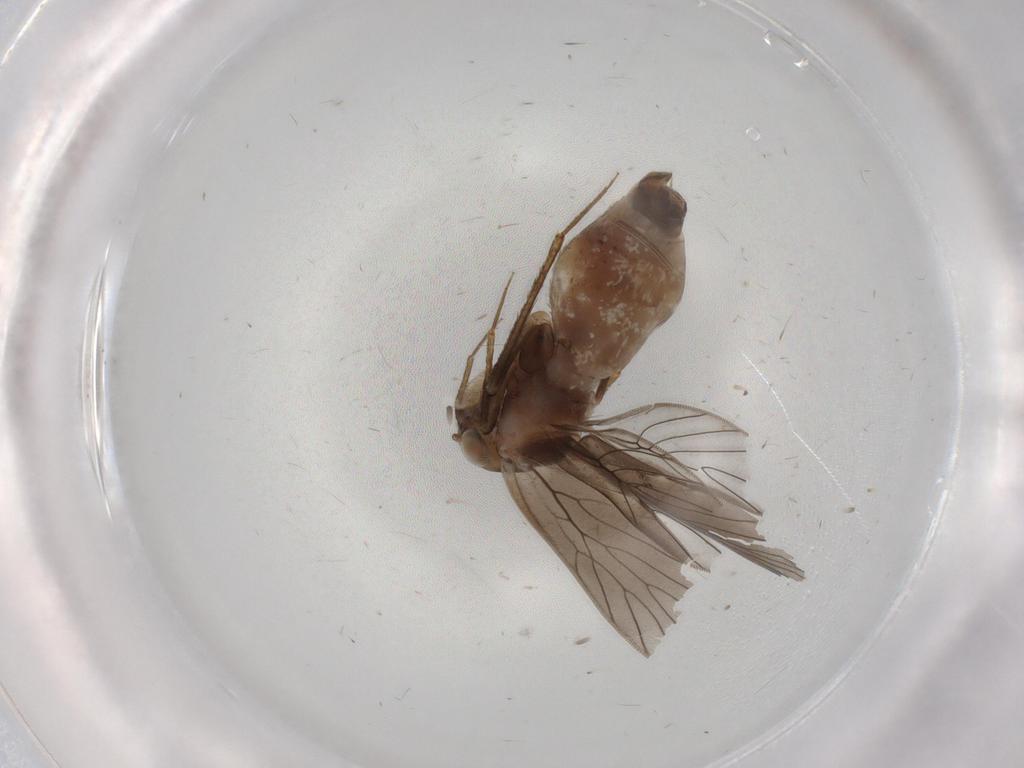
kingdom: Animalia
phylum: Arthropoda
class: Insecta
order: Psocodea
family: Lepidopsocidae
